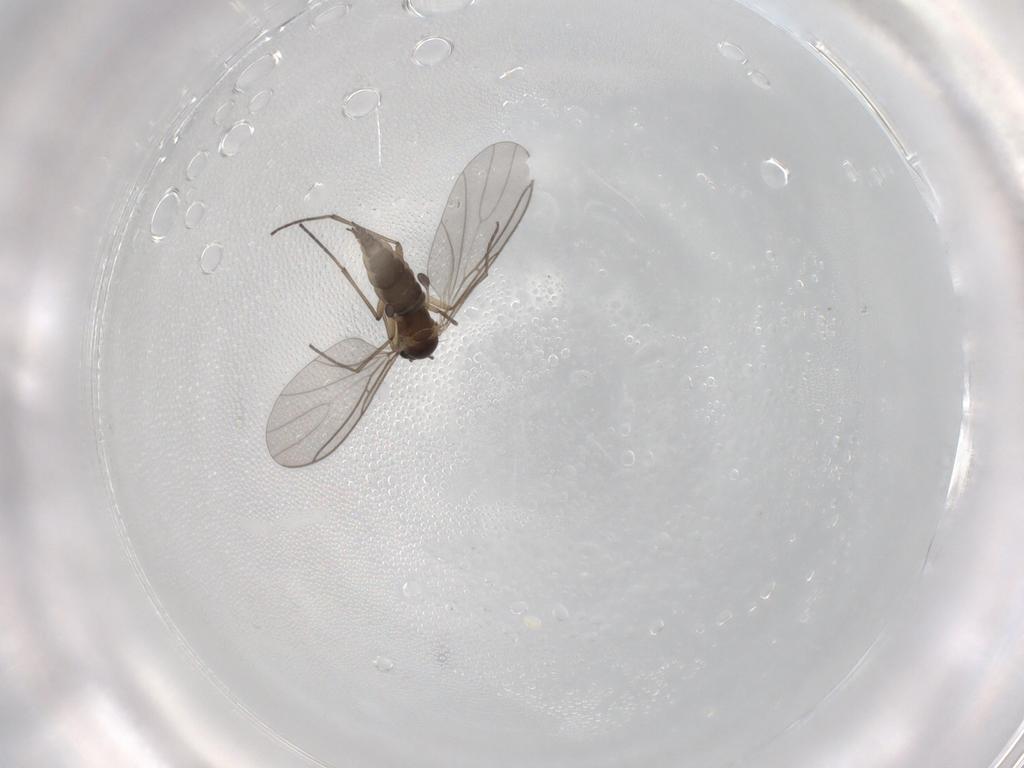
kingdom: Animalia
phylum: Arthropoda
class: Insecta
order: Diptera
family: Sciaridae
